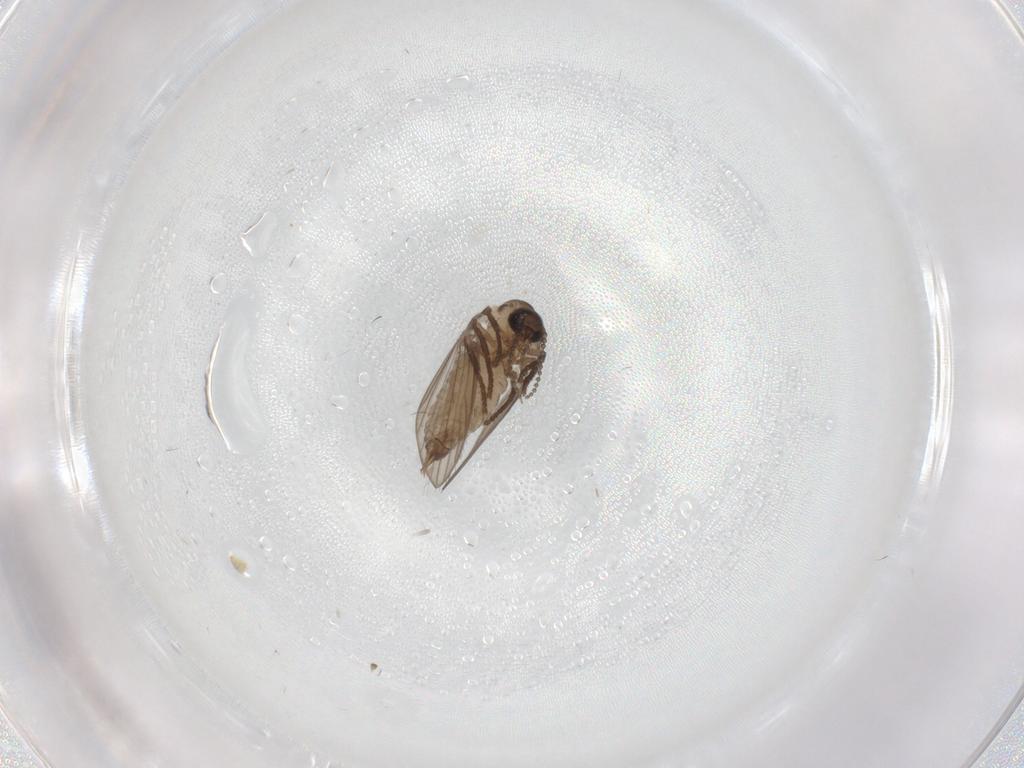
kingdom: Animalia
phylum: Arthropoda
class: Insecta
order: Diptera
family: Psychodidae
